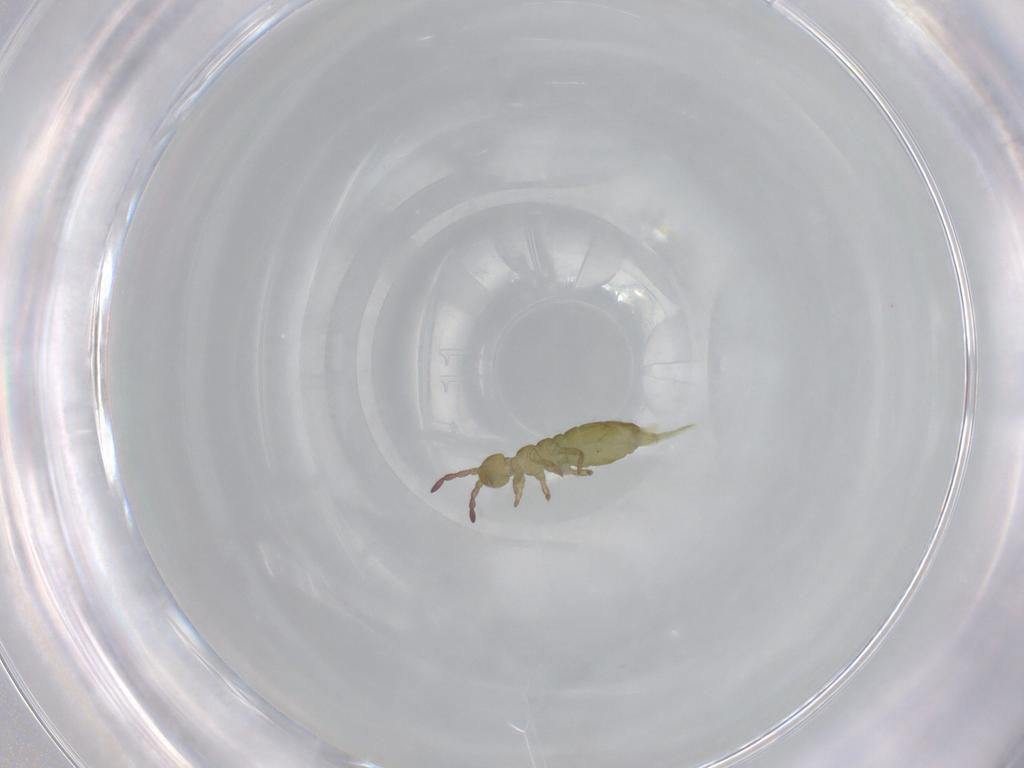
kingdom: Animalia
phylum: Arthropoda
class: Collembola
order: Entomobryomorpha
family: Isotomidae
